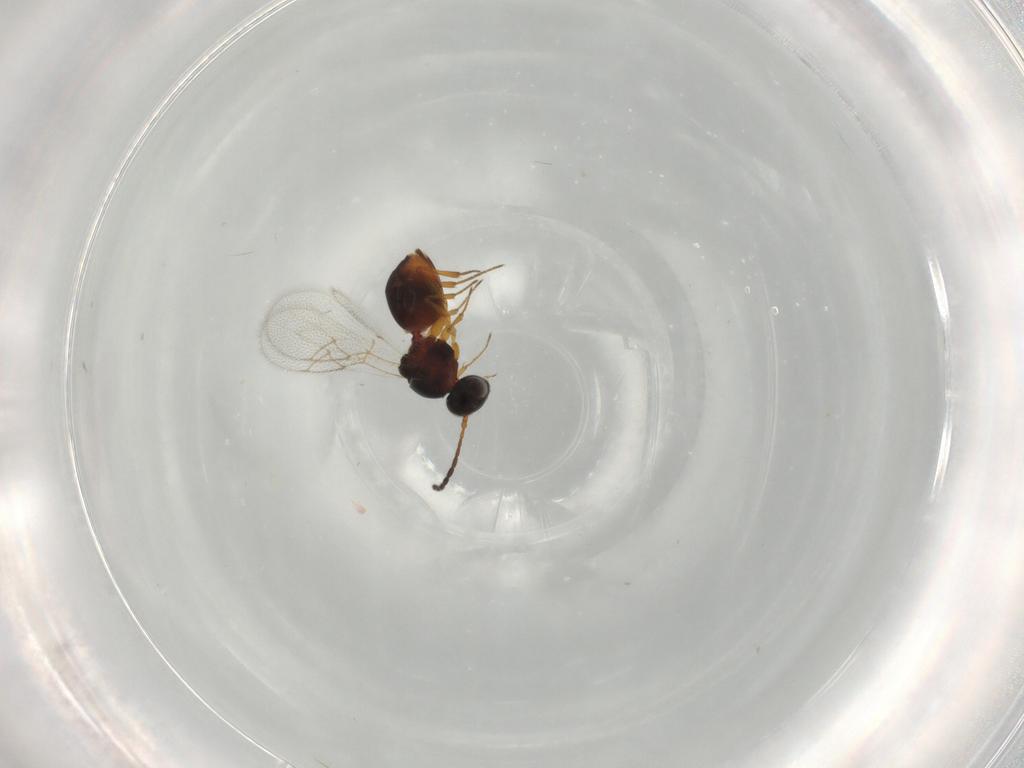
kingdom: Animalia
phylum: Arthropoda
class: Insecta
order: Hymenoptera
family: Figitidae
